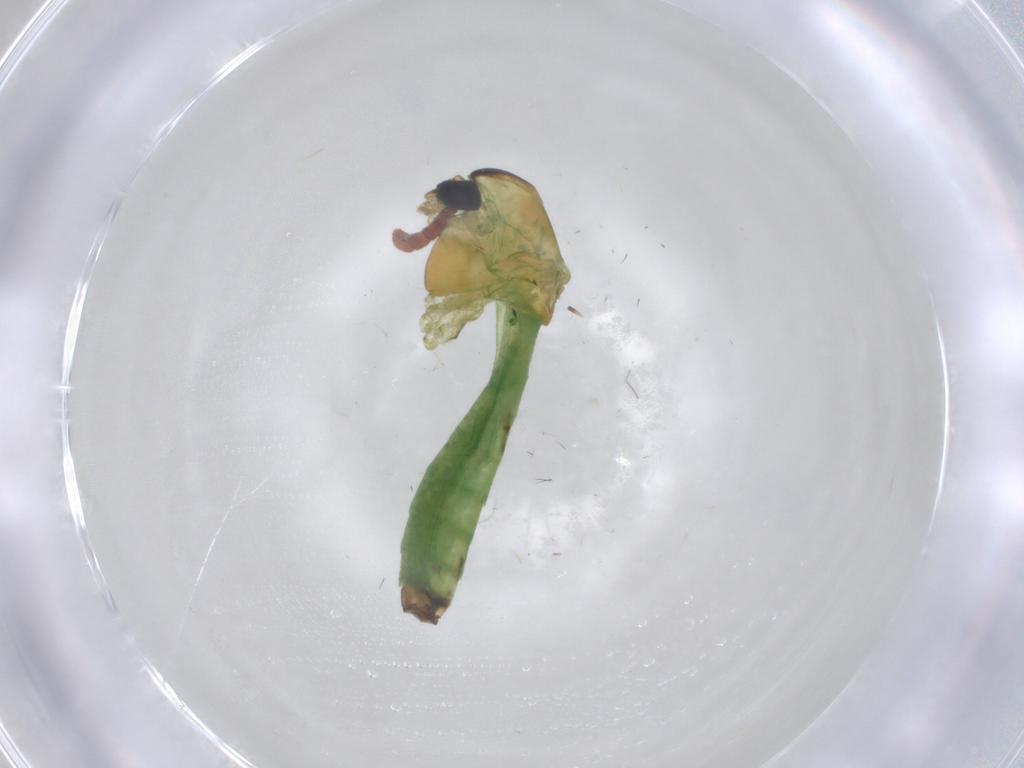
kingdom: Animalia
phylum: Arthropoda
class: Insecta
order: Diptera
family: Chironomidae
